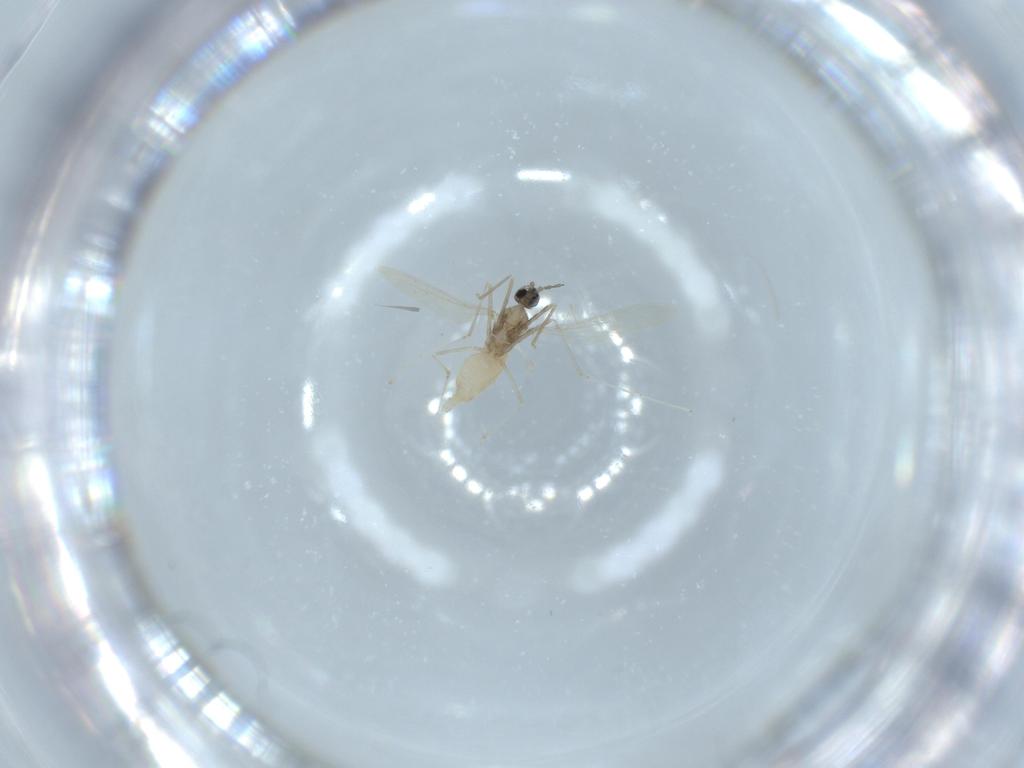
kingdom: Animalia
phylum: Arthropoda
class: Insecta
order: Diptera
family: Cecidomyiidae
